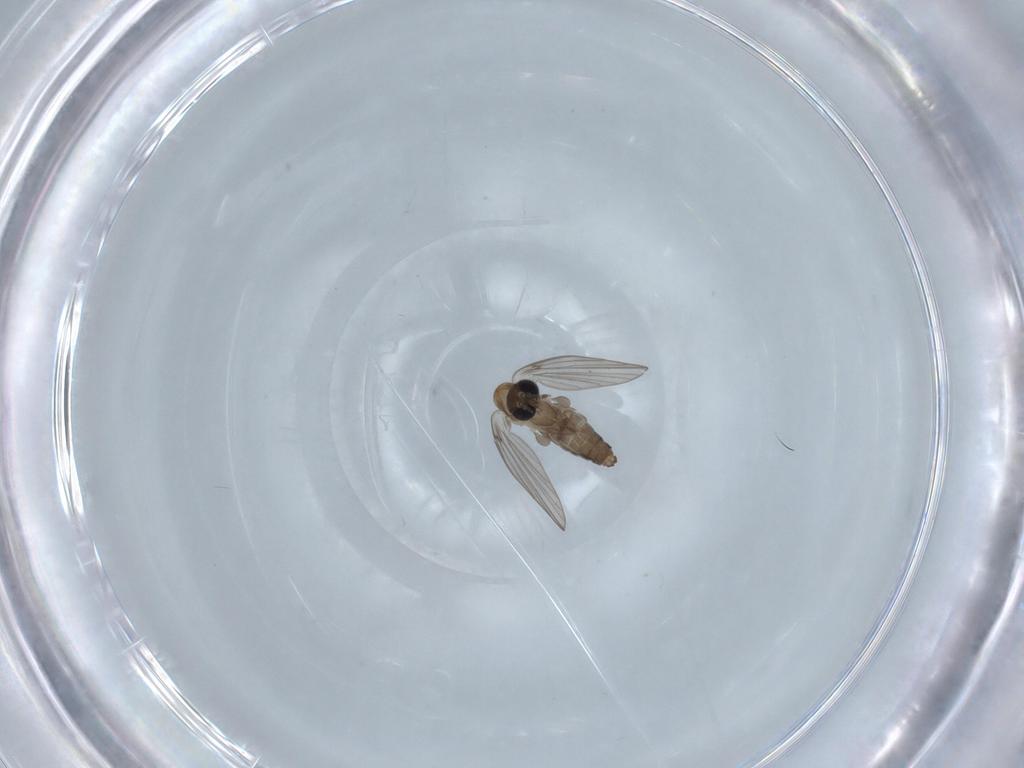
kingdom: Animalia
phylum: Arthropoda
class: Insecta
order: Diptera
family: Psychodidae
